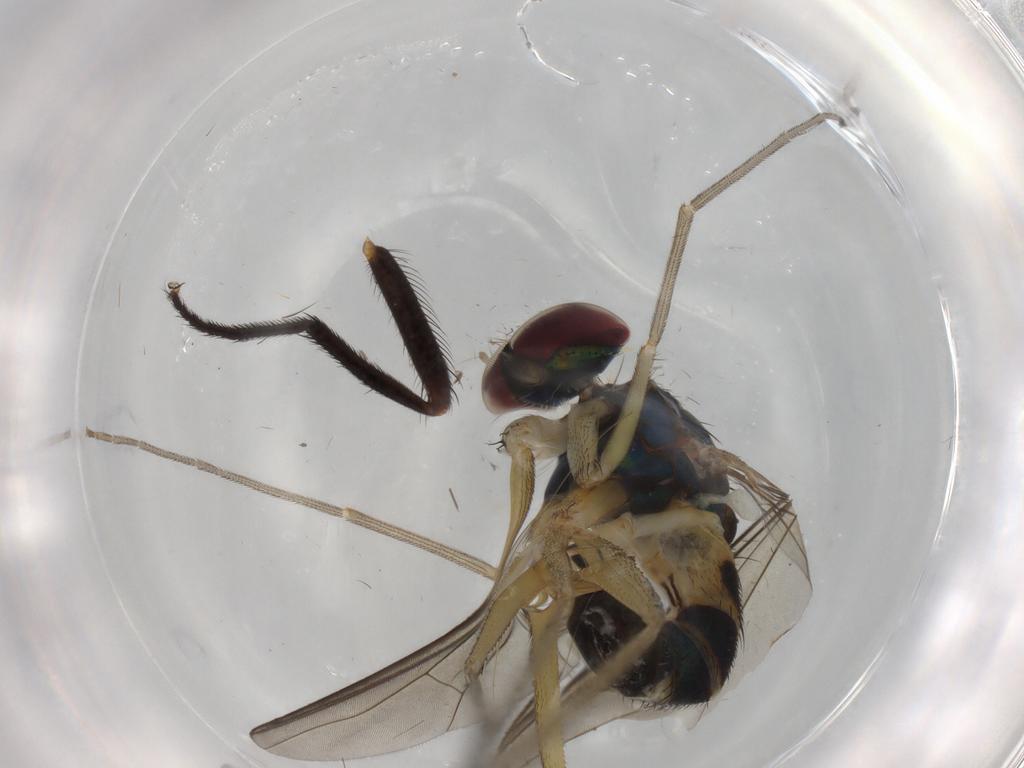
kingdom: Animalia
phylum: Arthropoda
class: Insecta
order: Diptera
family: Dolichopodidae
